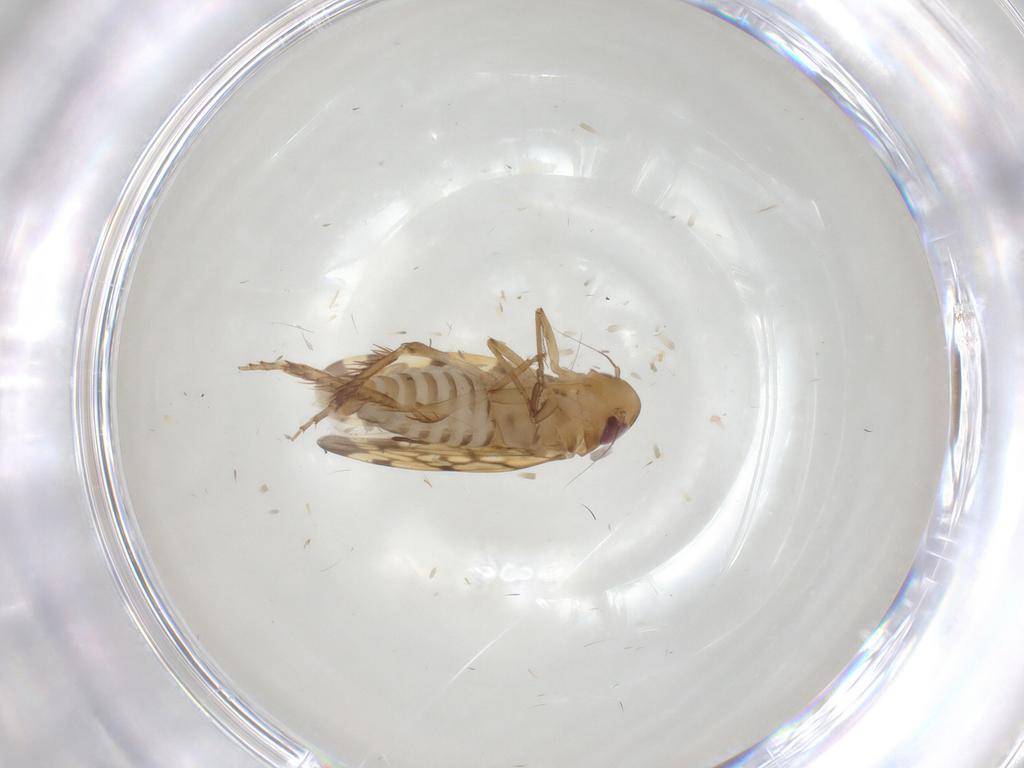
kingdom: Animalia
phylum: Arthropoda
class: Insecta
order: Hemiptera
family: Cicadellidae
